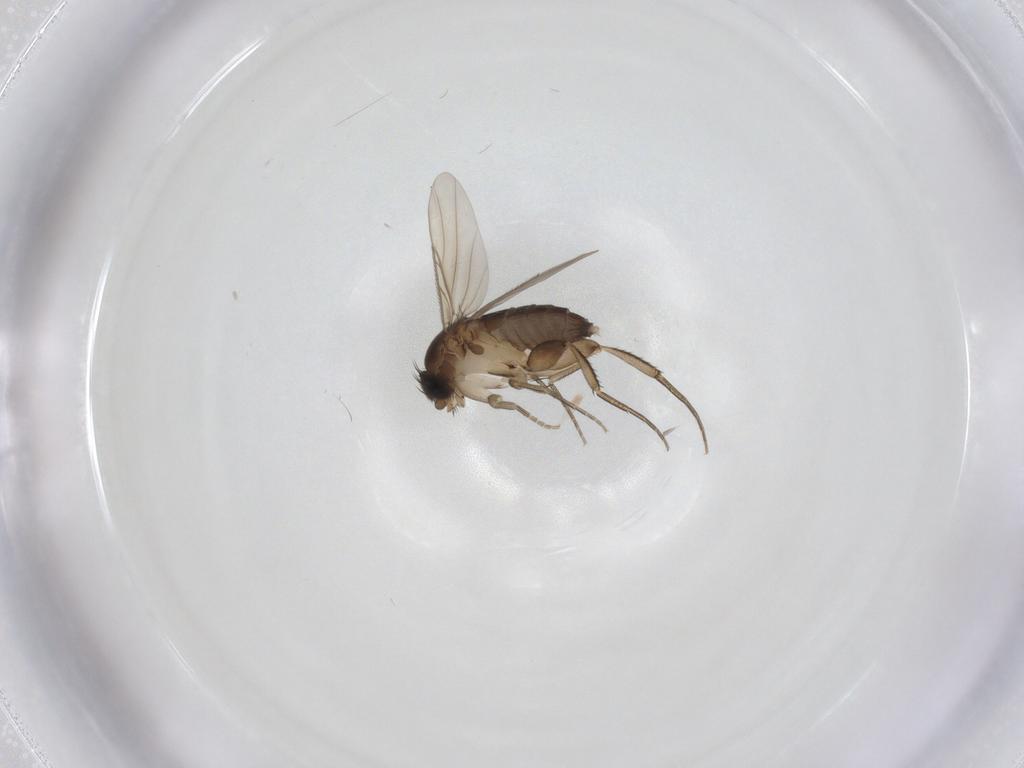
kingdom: Animalia
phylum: Arthropoda
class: Insecta
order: Diptera
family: Phoridae
